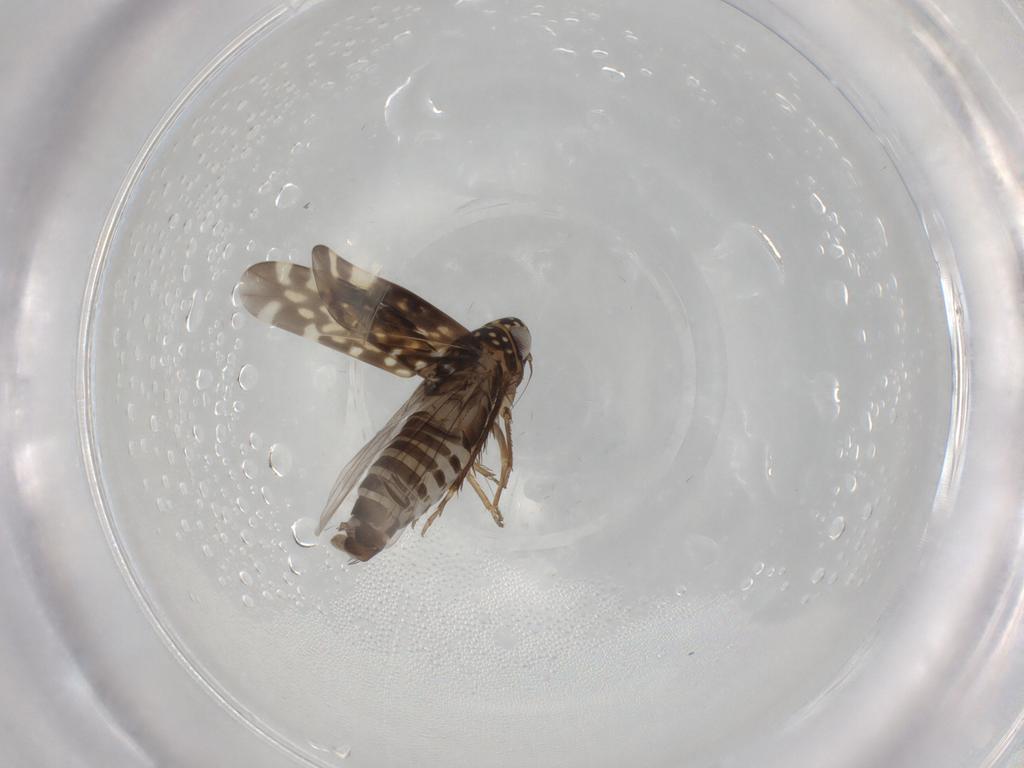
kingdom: Animalia
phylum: Arthropoda
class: Insecta
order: Hemiptera
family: Cicadellidae
